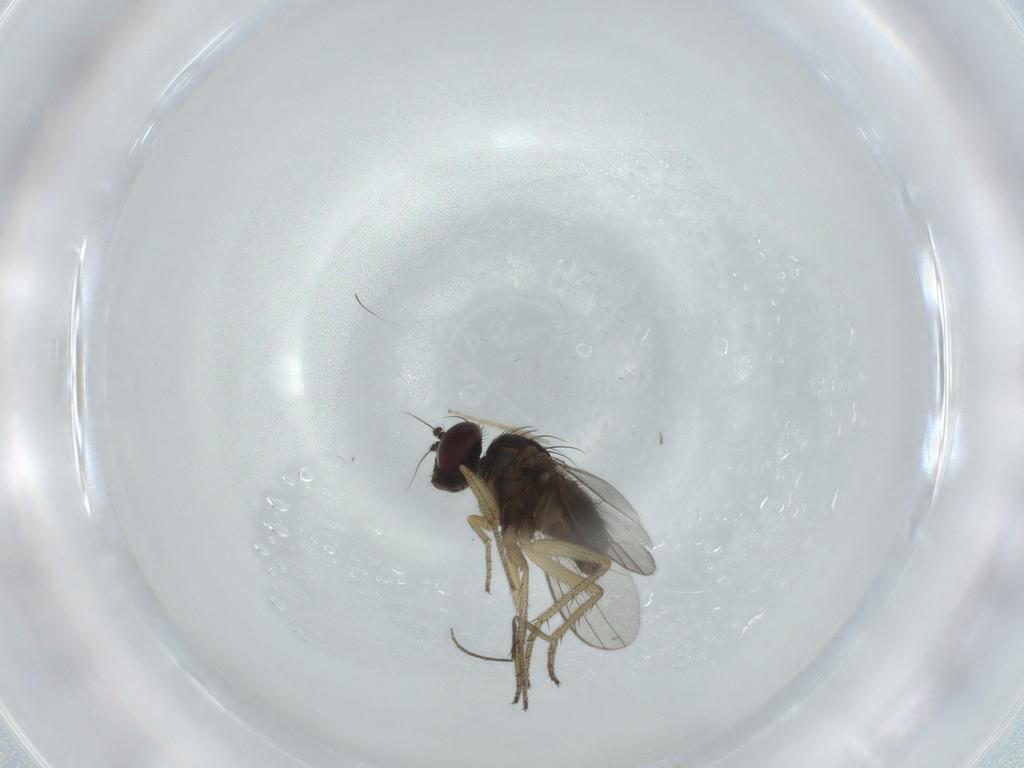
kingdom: Animalia
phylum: Arthropoda
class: Insecta
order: Diptera
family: Dolichopodidae
